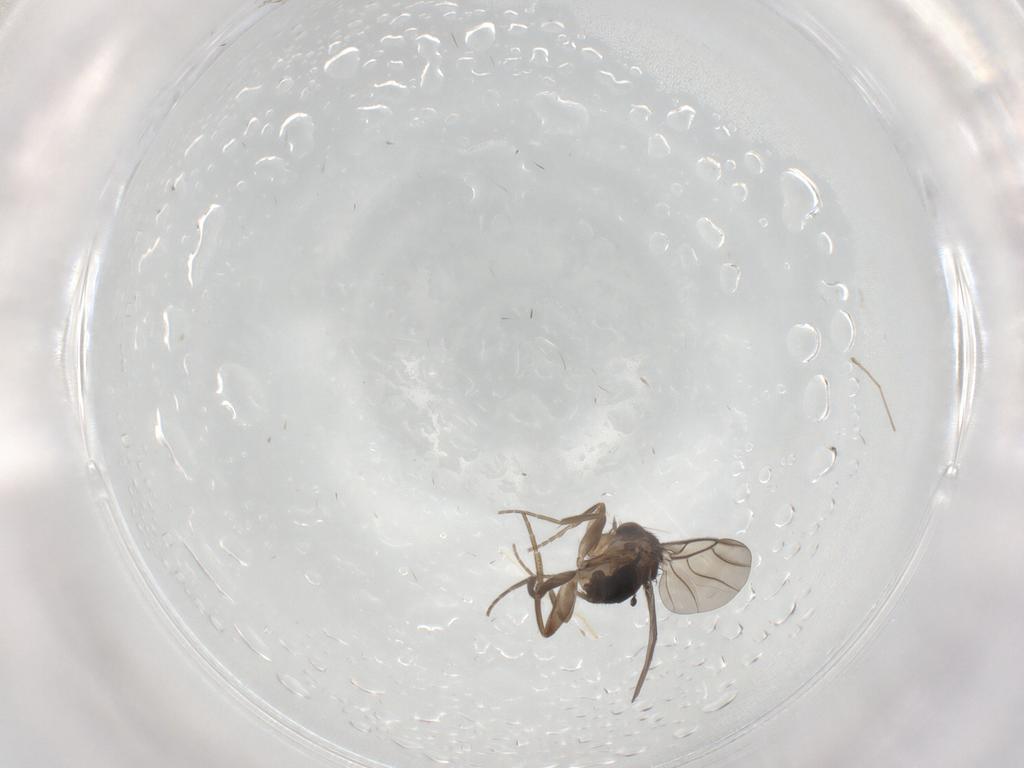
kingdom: Animalia
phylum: Arthropoda
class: Insecta
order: Diptera
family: Cecidomyiidae
